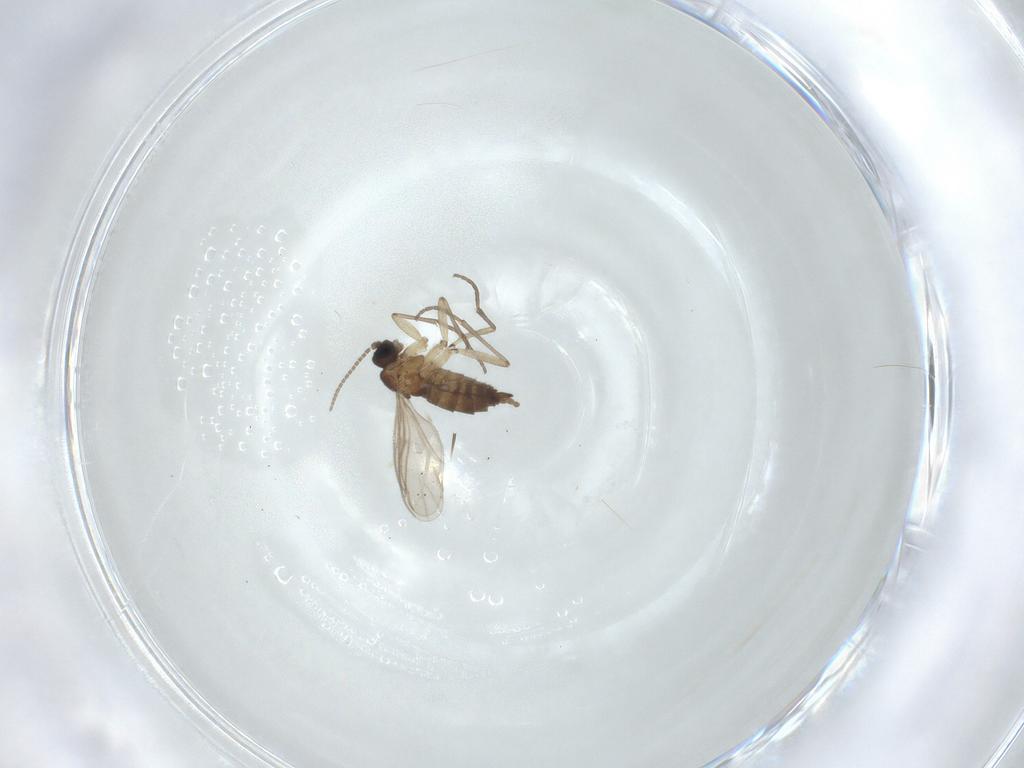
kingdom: Animalia
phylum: Arthropoda
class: Insecta
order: Diptera
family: Sciaridae
